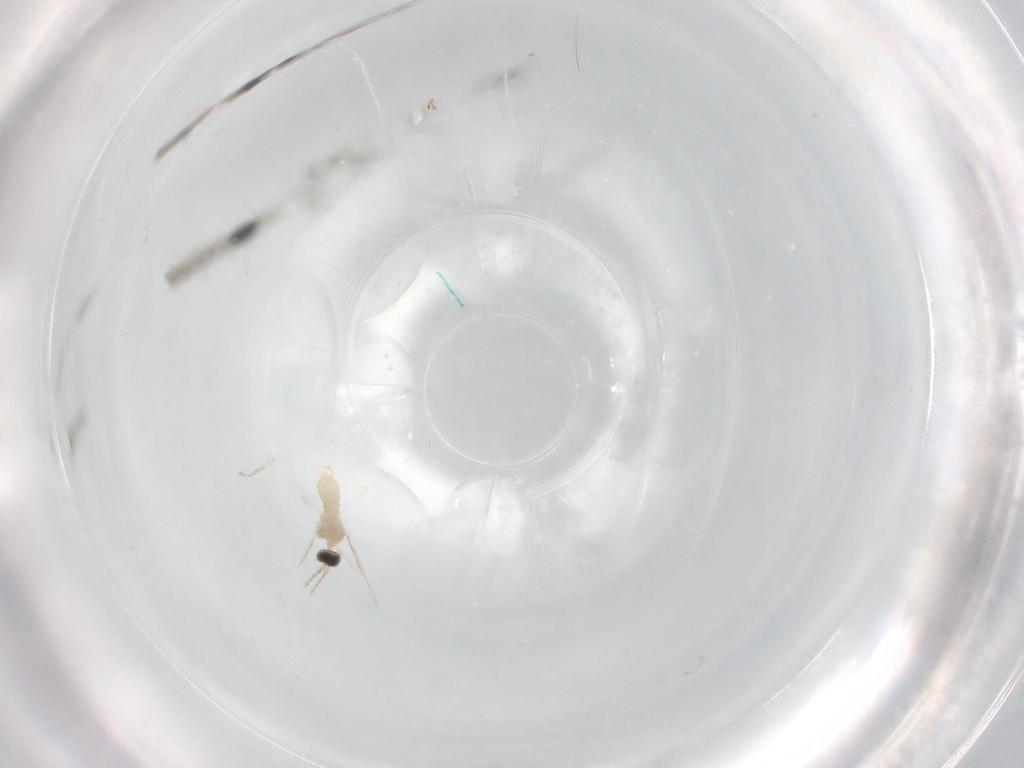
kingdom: Animalia
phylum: Arthropoda
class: Insecta
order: Diptera
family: Cecidomyiidae
